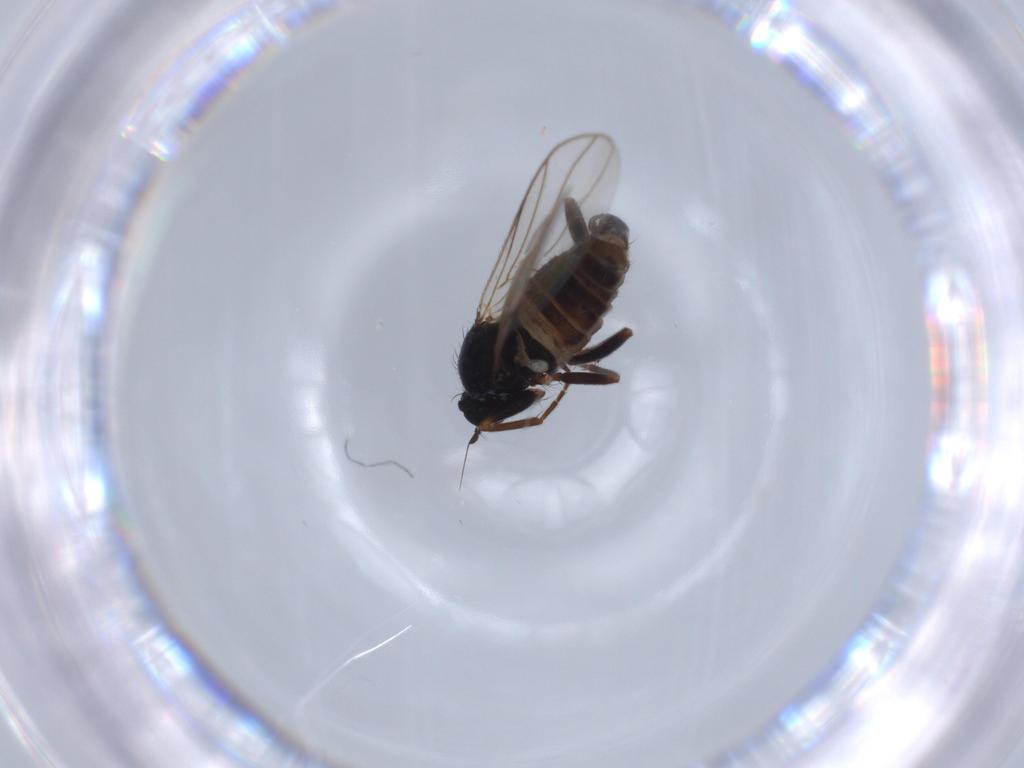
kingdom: Animalia
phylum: Arthropoda
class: Insecta
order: Diptera
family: Hybotidae
